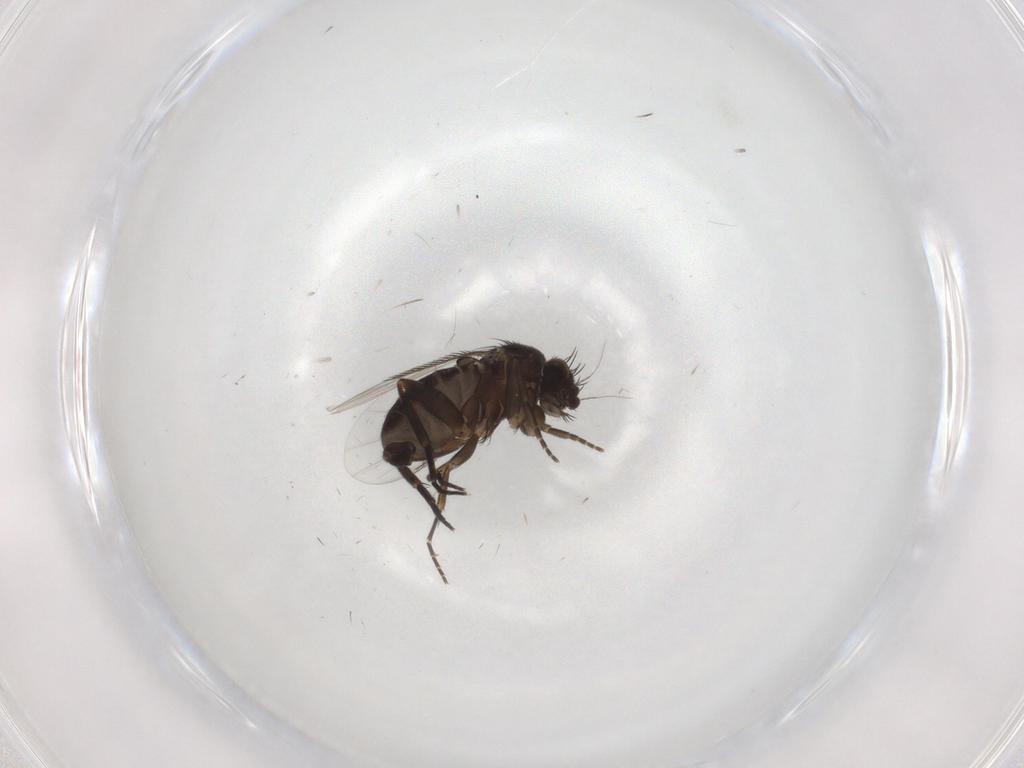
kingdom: Animalia
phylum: Arthropoda
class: Insecta
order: Diptera
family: Phoridae
